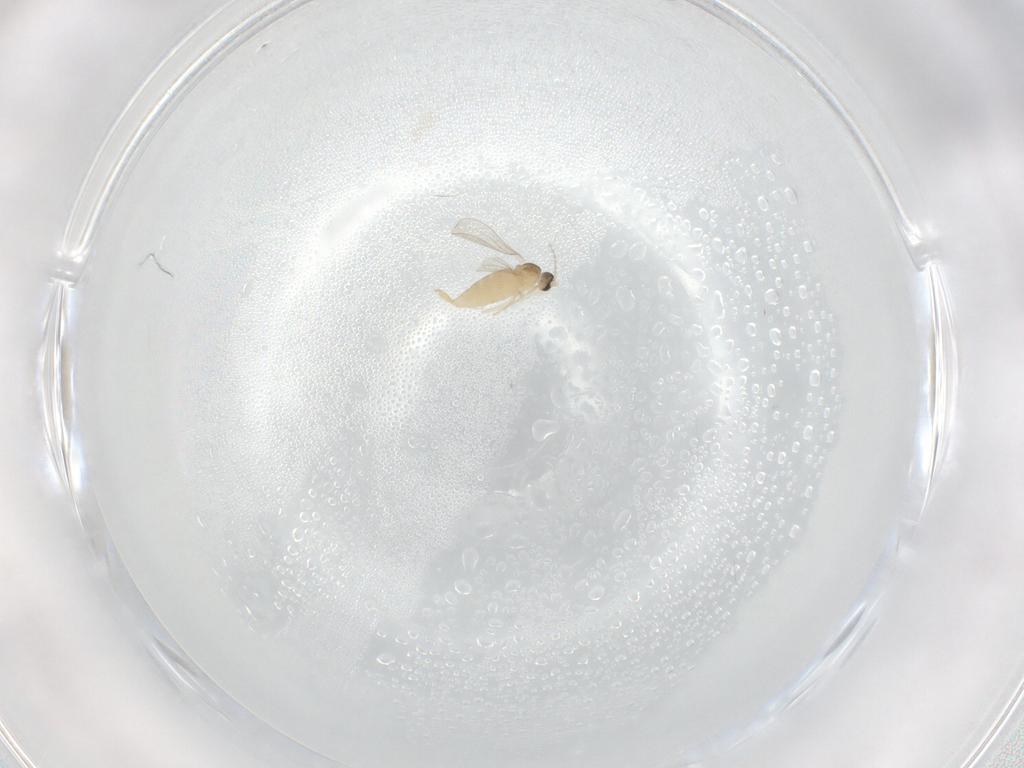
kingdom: Animalia
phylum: Arthropoda
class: Insecta
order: Diptera
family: Cecidomyiidae
